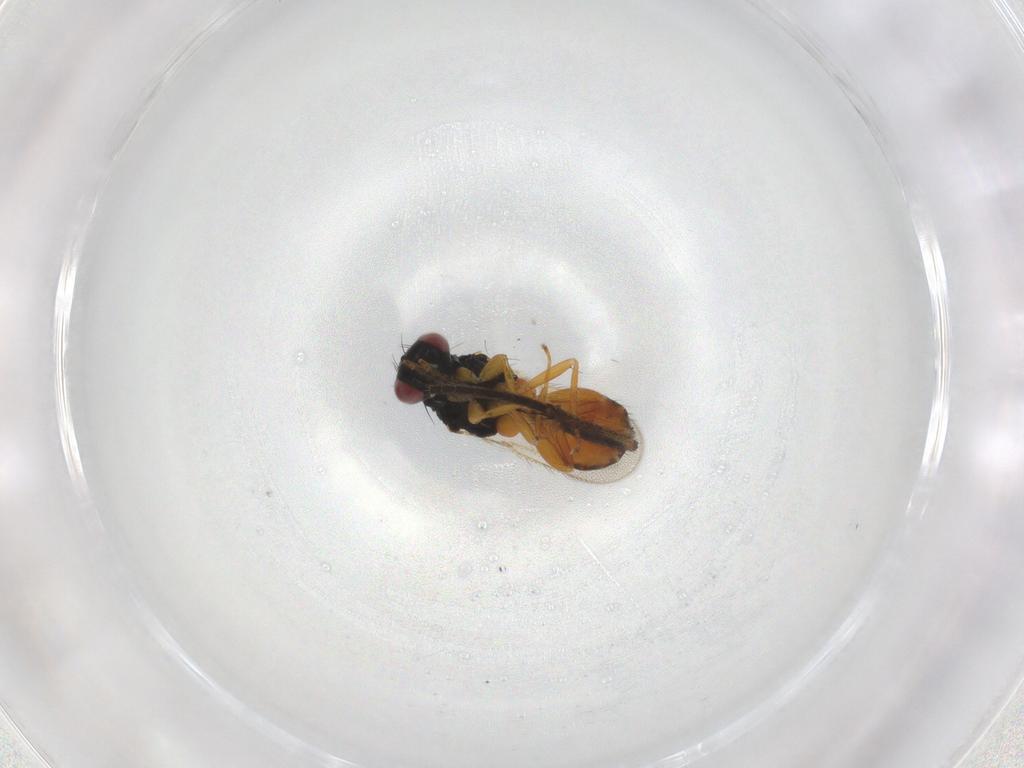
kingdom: Animalia
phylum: Arthropoda
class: Insecta
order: Hymenoptera
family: Eulophidae
